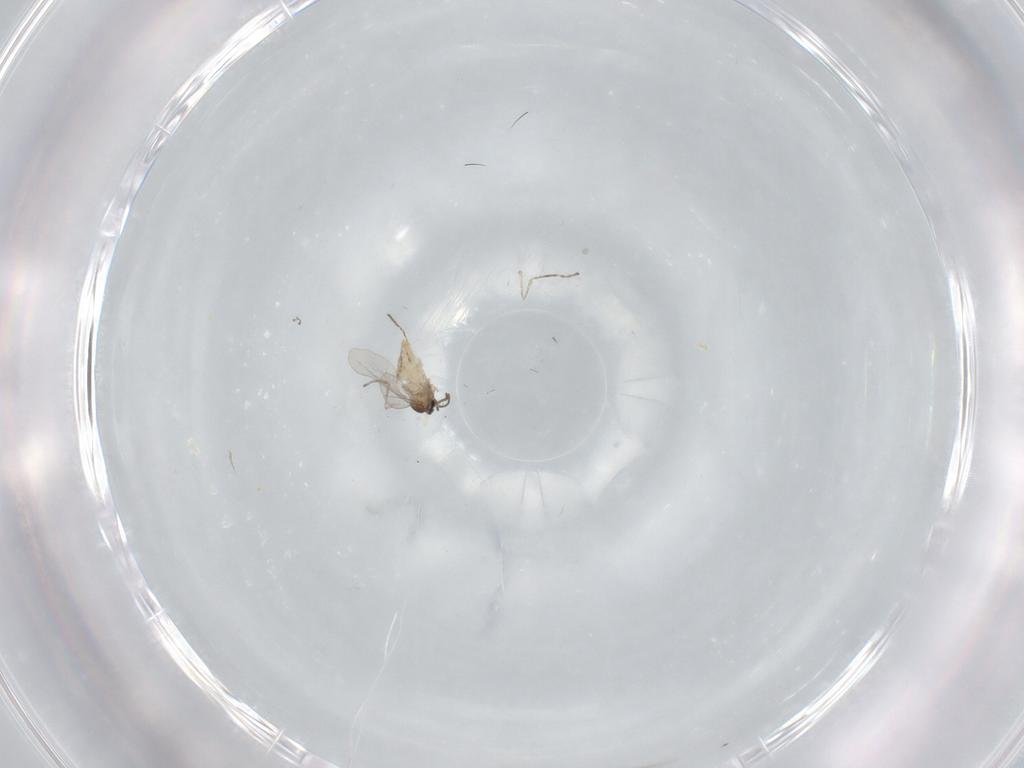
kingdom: Animalia
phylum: Arthropoda
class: Insecta
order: Diptera
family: Cecidomyiidae
